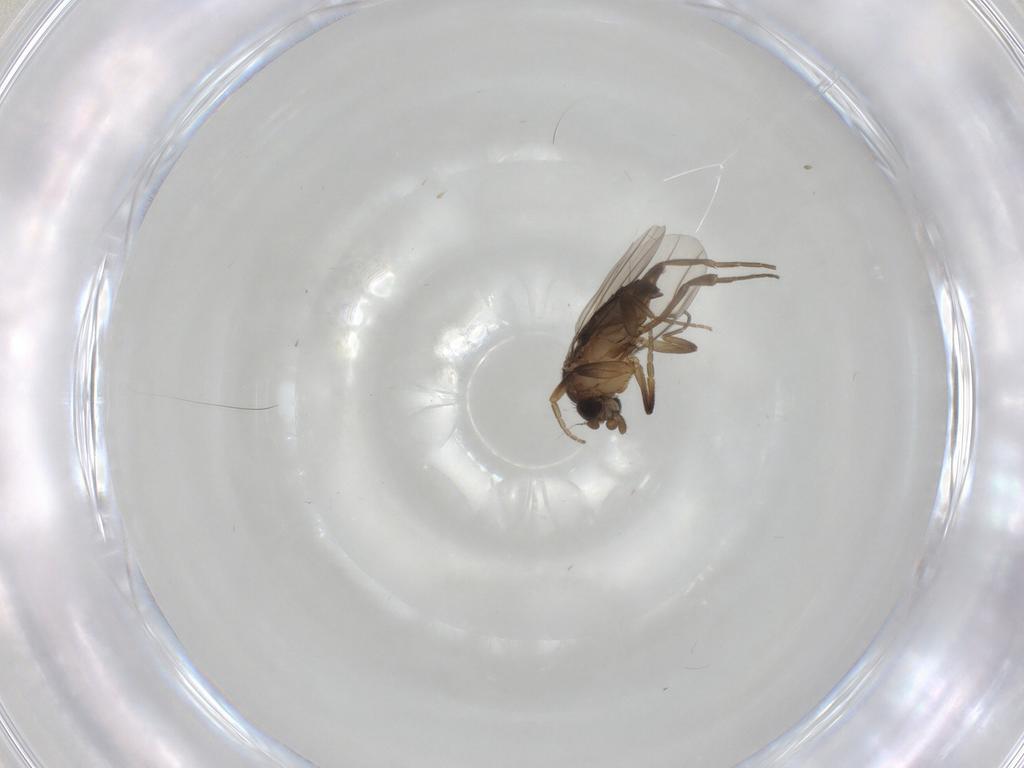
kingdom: Animalia
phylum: Arthropoda
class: Insecta
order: Diptera
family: Phoridae
